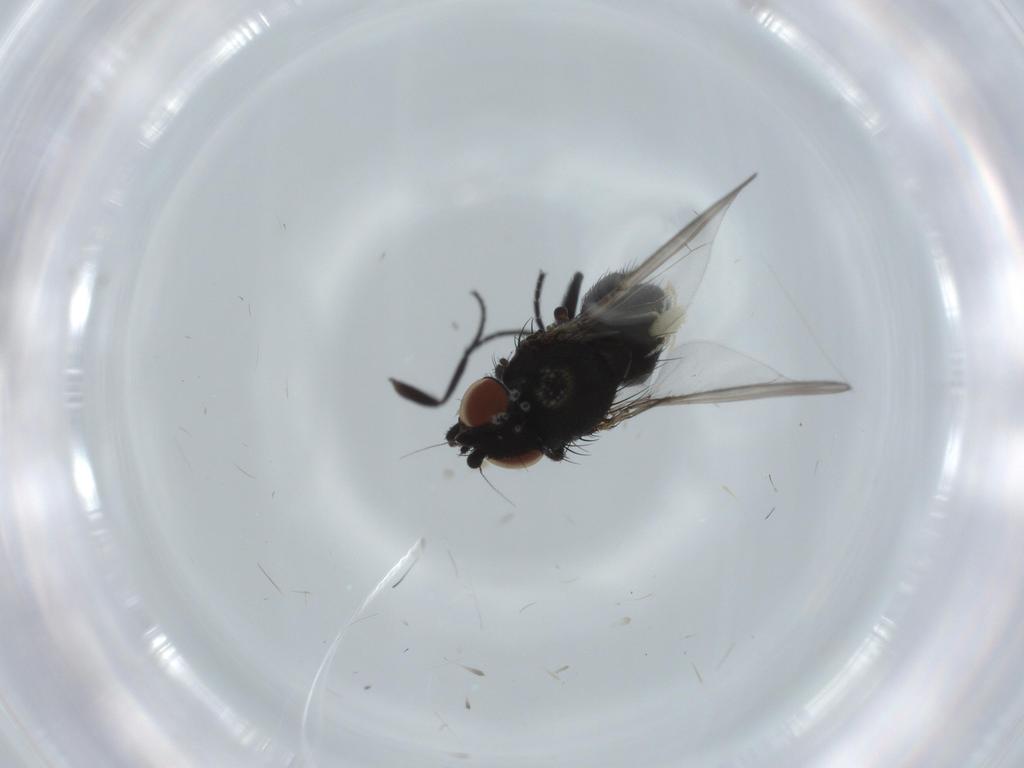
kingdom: Animalia
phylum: Arthropoda
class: Insecta
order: Diptera
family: Milichiidae
